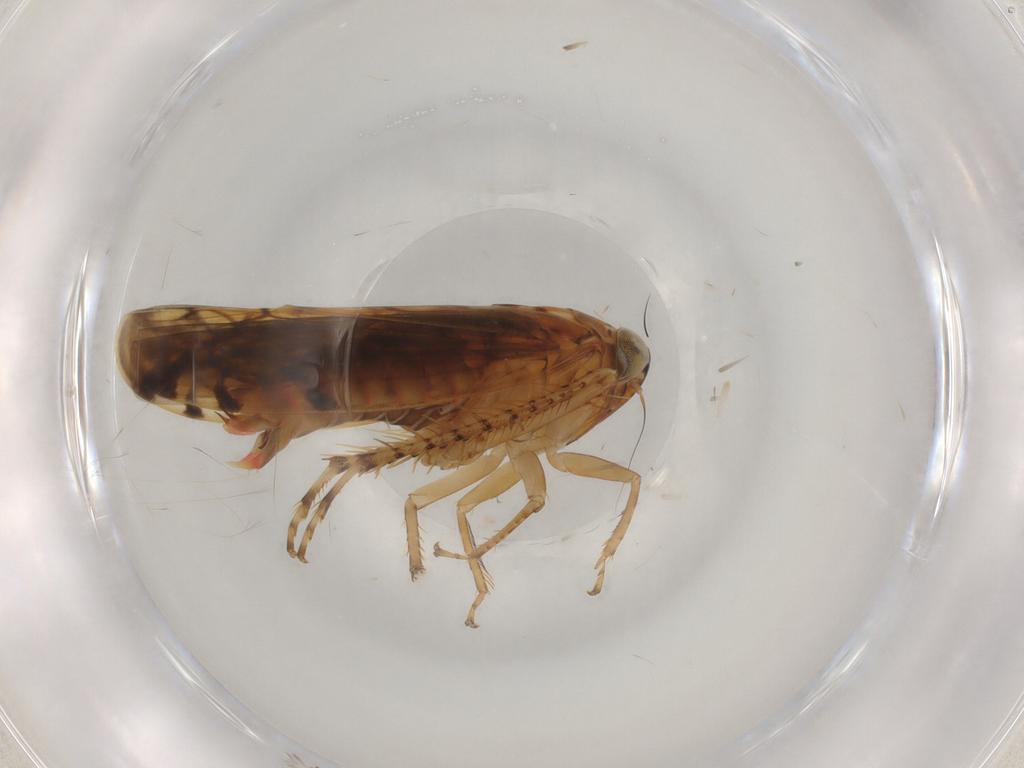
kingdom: Animalia
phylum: Arthropoda
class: Insecta
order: Hemiptera
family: Cicadellidae
